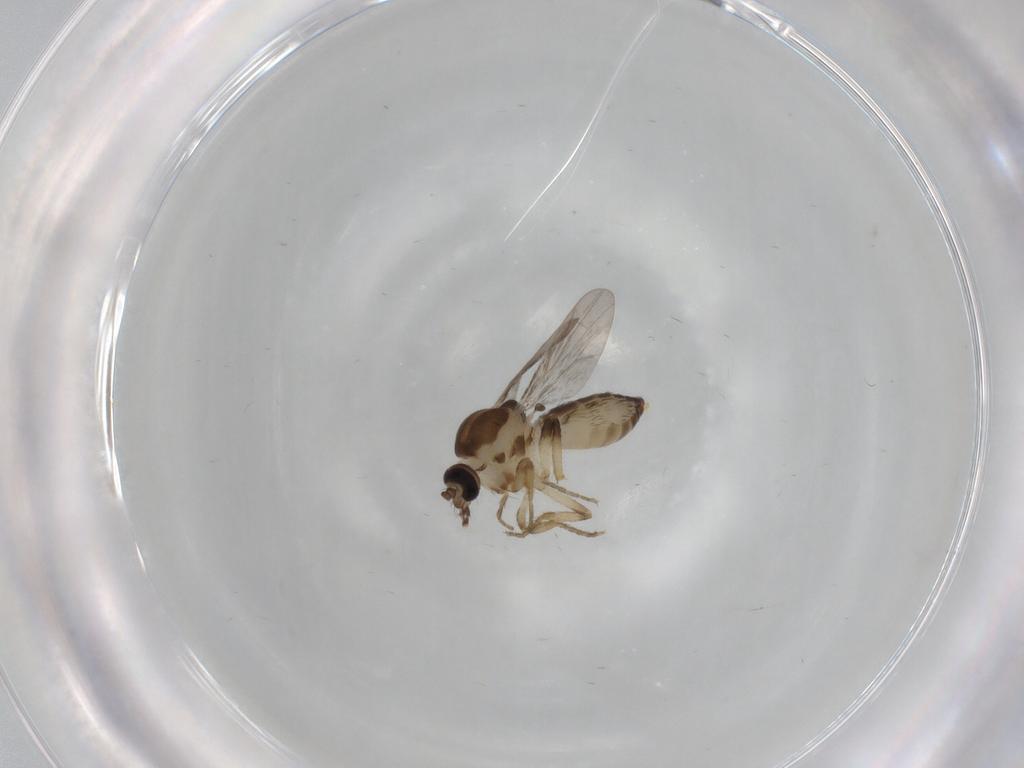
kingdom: Animalia
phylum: Arthropoda
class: Insecta
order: Diptera
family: Ceratopogonidae
